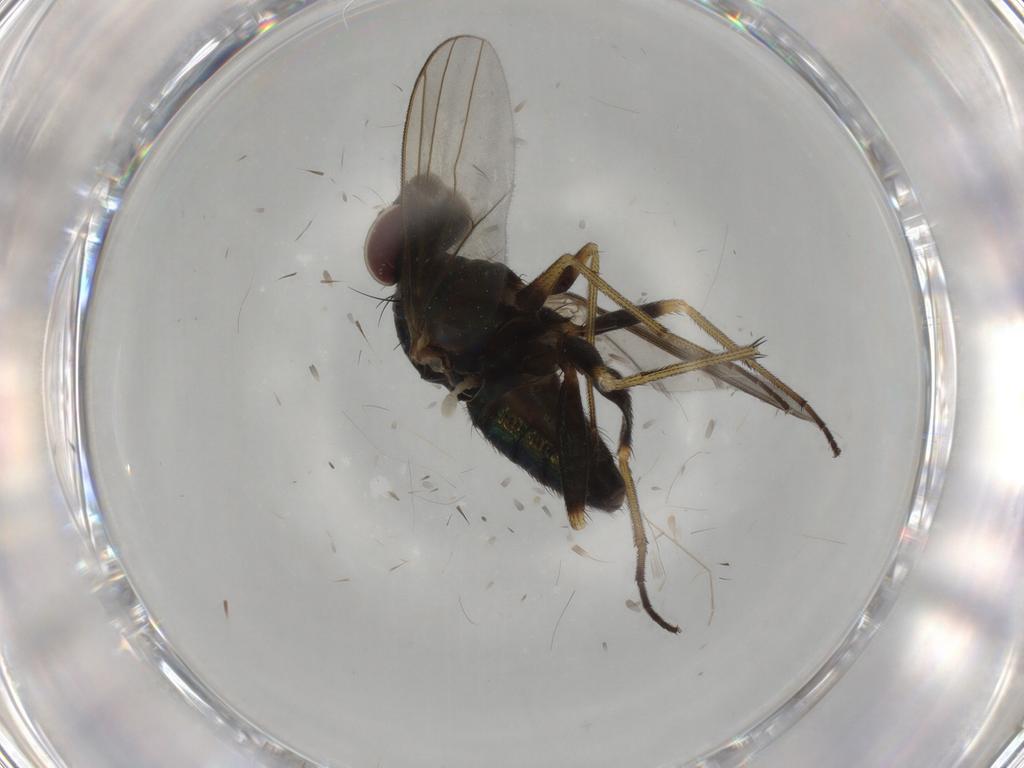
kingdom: Animalia
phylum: Arthropoda
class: Insecta
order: Diptera
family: Dolichopodidae
